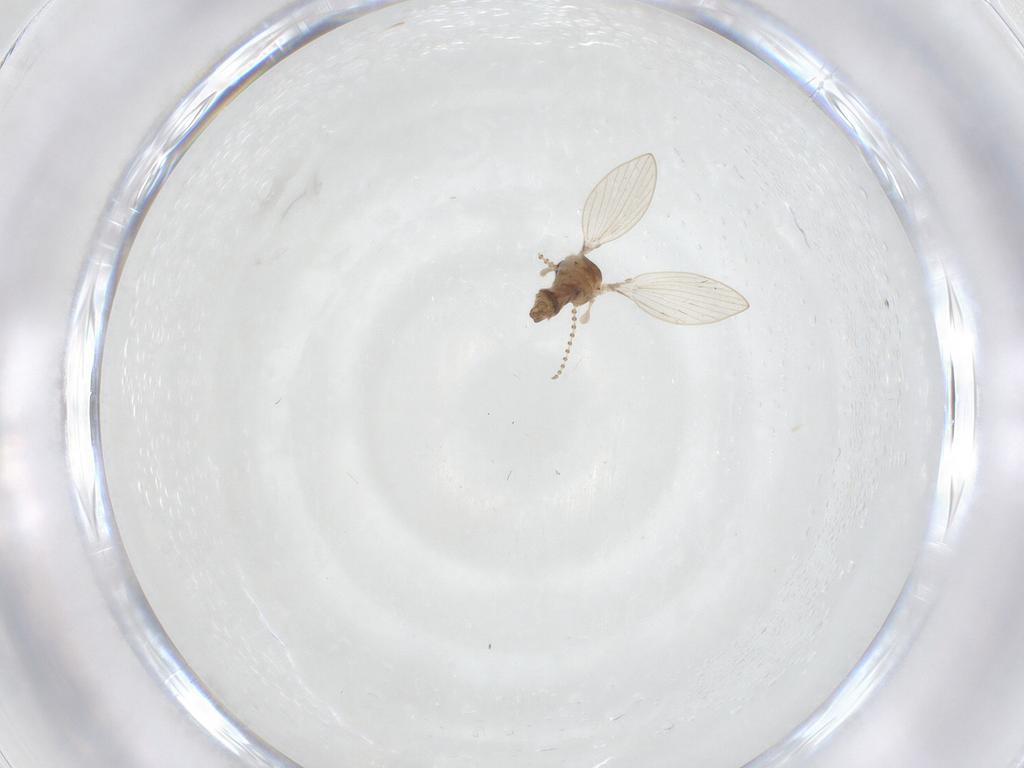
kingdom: Animalia
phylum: Arthropoda
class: Insecta
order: Diptera
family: Psychodidae
